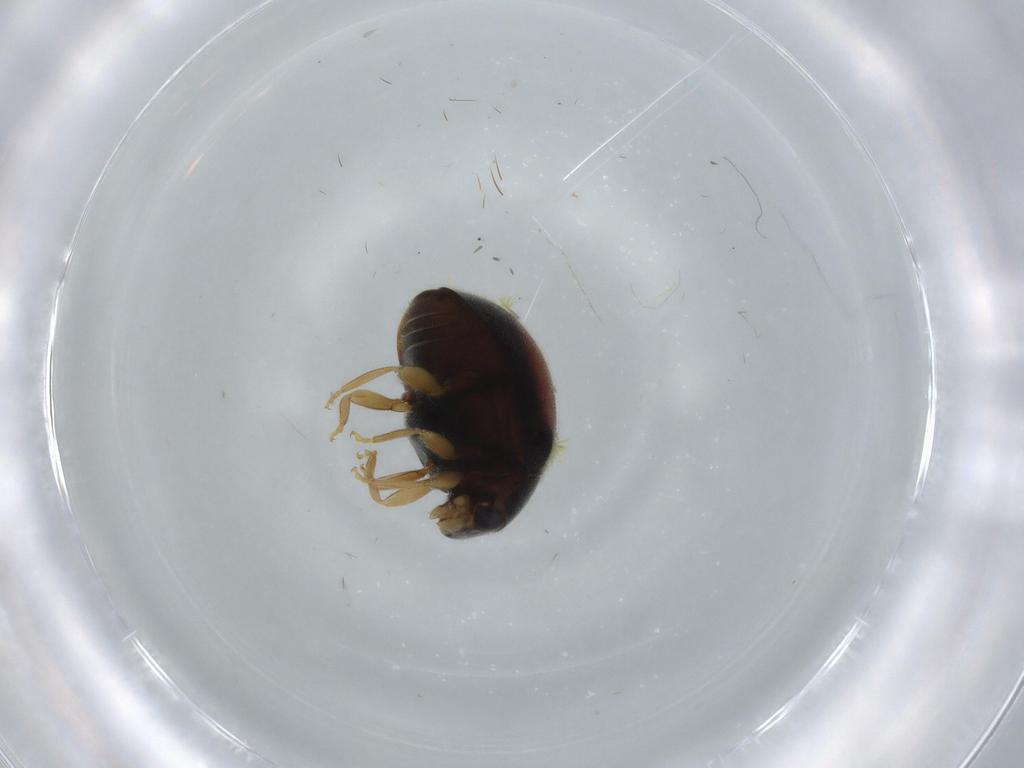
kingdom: Animalia
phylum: Arthropoda
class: Insecta
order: Coleoptera
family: Coccinellidae
